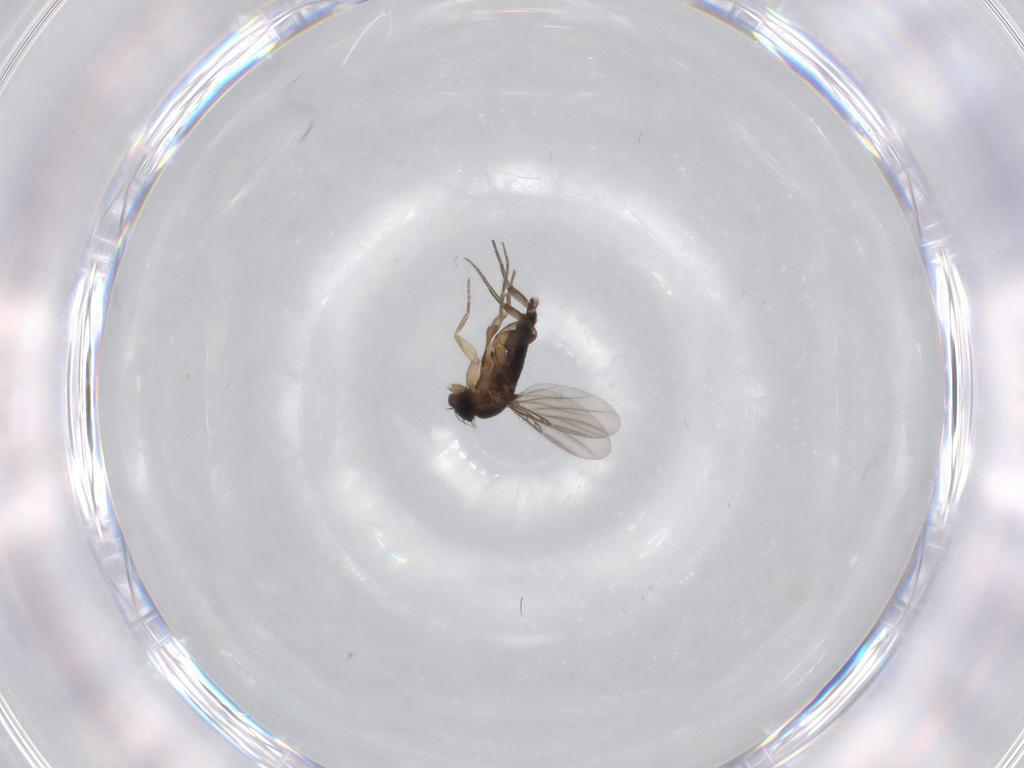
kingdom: Animalia
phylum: Arthropoda
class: Insecta
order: Diptera
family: Phoridae
